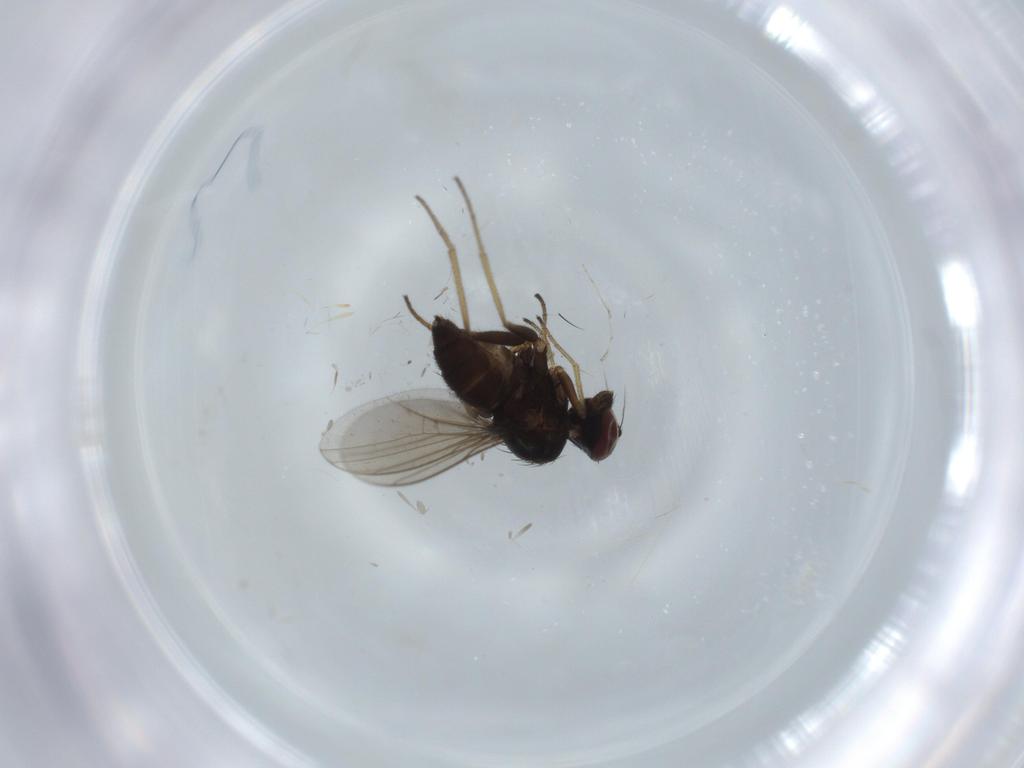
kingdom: Animalia
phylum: Arthropoda
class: Insecta
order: Diptera
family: Dolichopodidae
